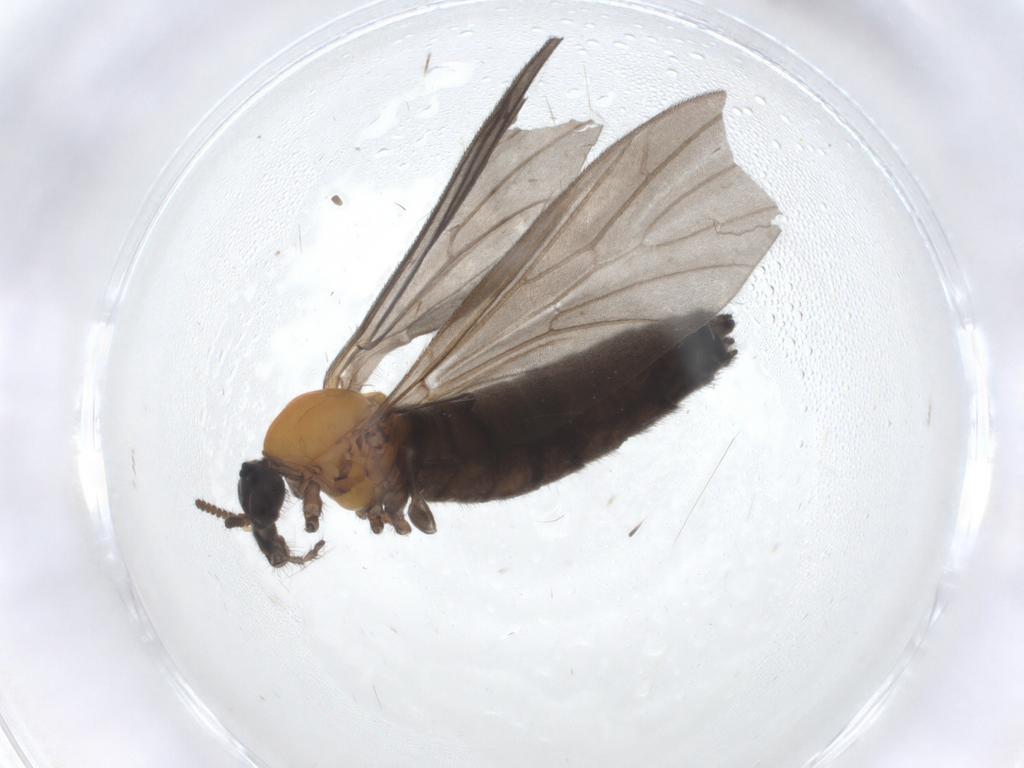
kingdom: Animalia
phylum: Arthropoda
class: Insecta
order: Diptera
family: Bibionidae
